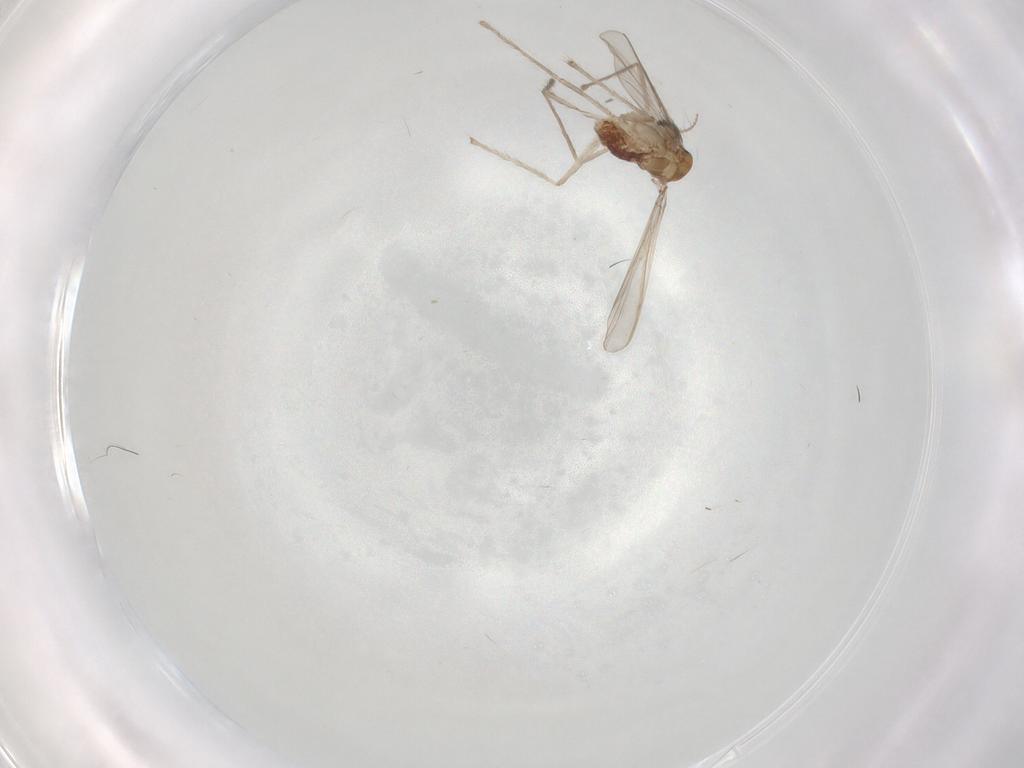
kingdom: Animalia
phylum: Arthropoda
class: Insecta
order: Diptera
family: Chironomidae
